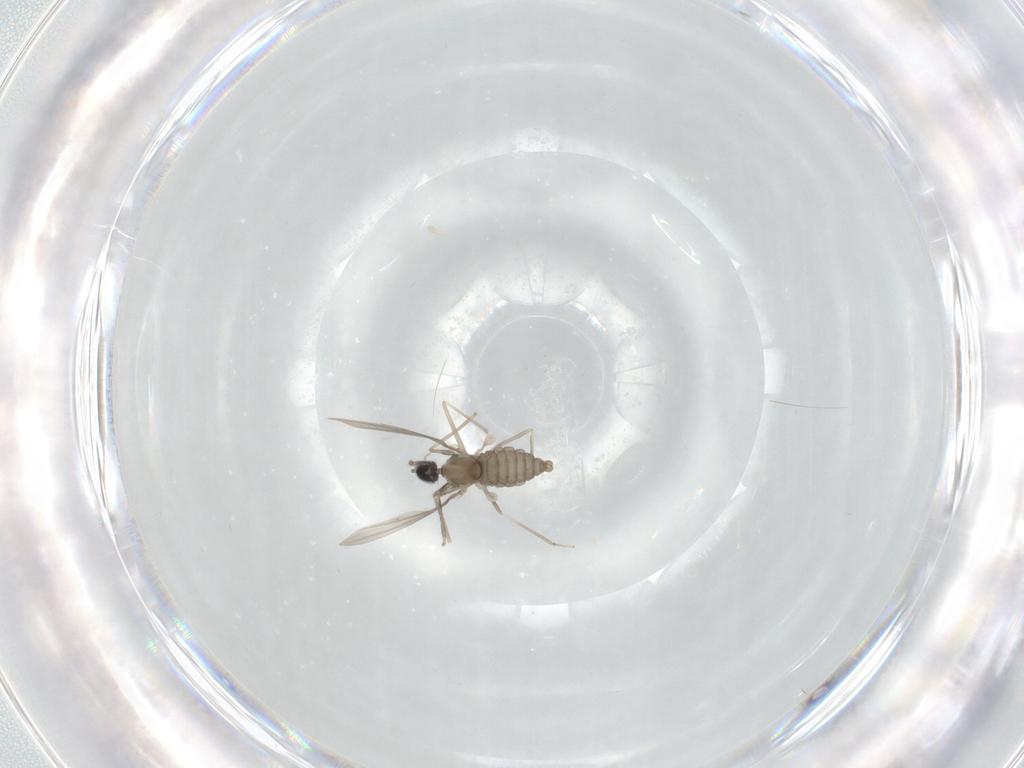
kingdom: Animalia
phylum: Arthropoda
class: Insecta
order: Diptera
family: Cecidomyiidae
